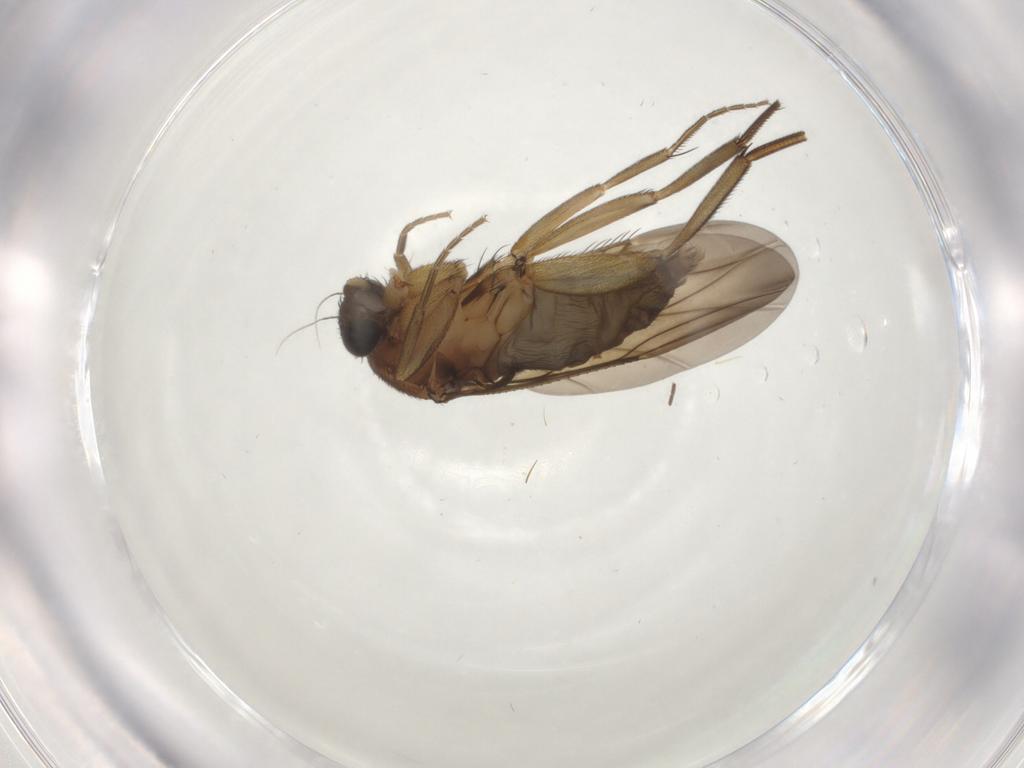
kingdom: Animalia
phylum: Arthropoda
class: Insecta
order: Diptera
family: Phoridae
